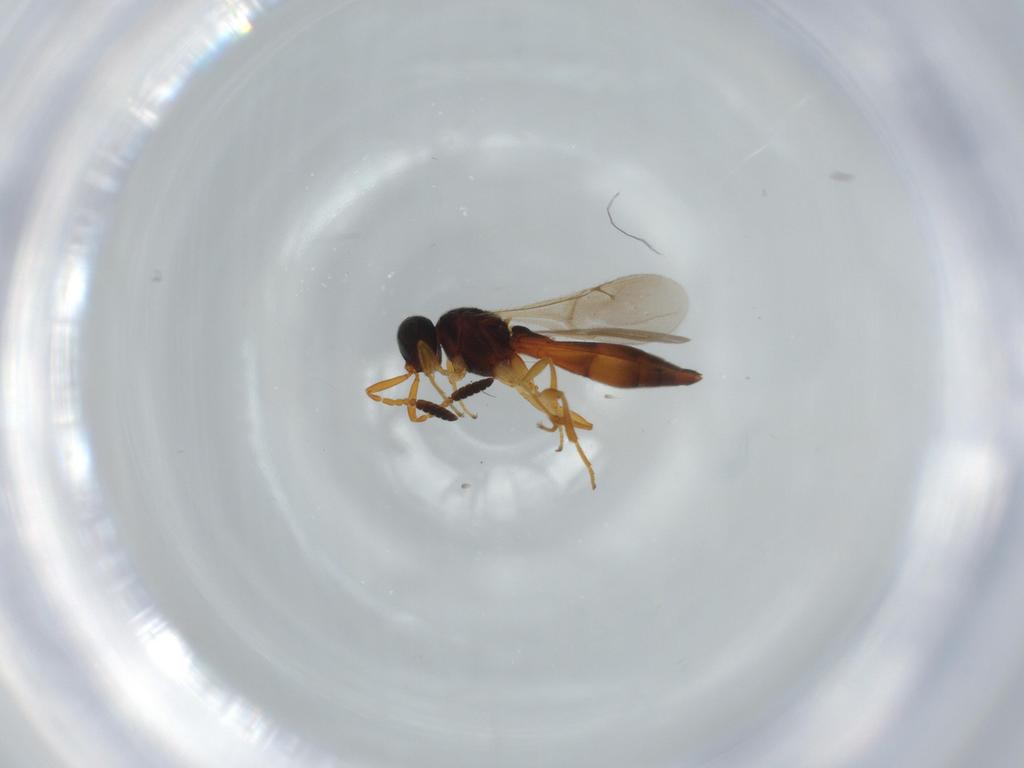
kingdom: Animalia
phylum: Arthropoda
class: Insecta
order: Hymenoptera
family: Scelionidae
